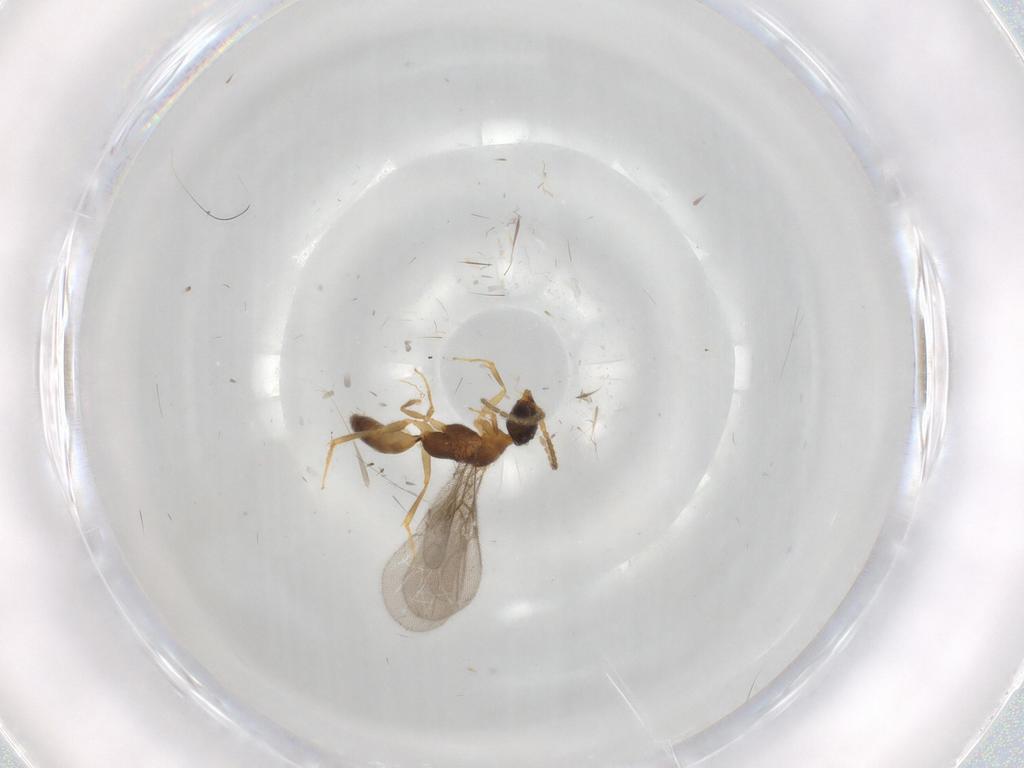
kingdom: Animalia
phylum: Arthropoda
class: Insecta
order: Hymenoptera
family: Bethylidae
